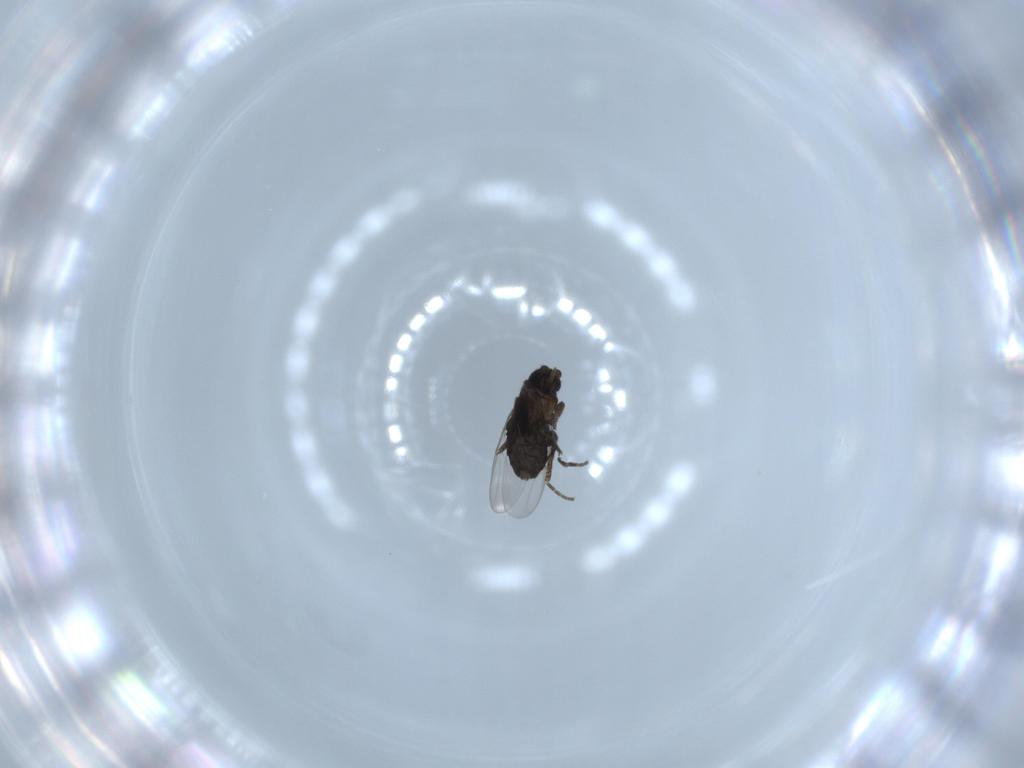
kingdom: Animalia
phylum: Arthropoda
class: Insecta
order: Diptera
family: Phoridae
